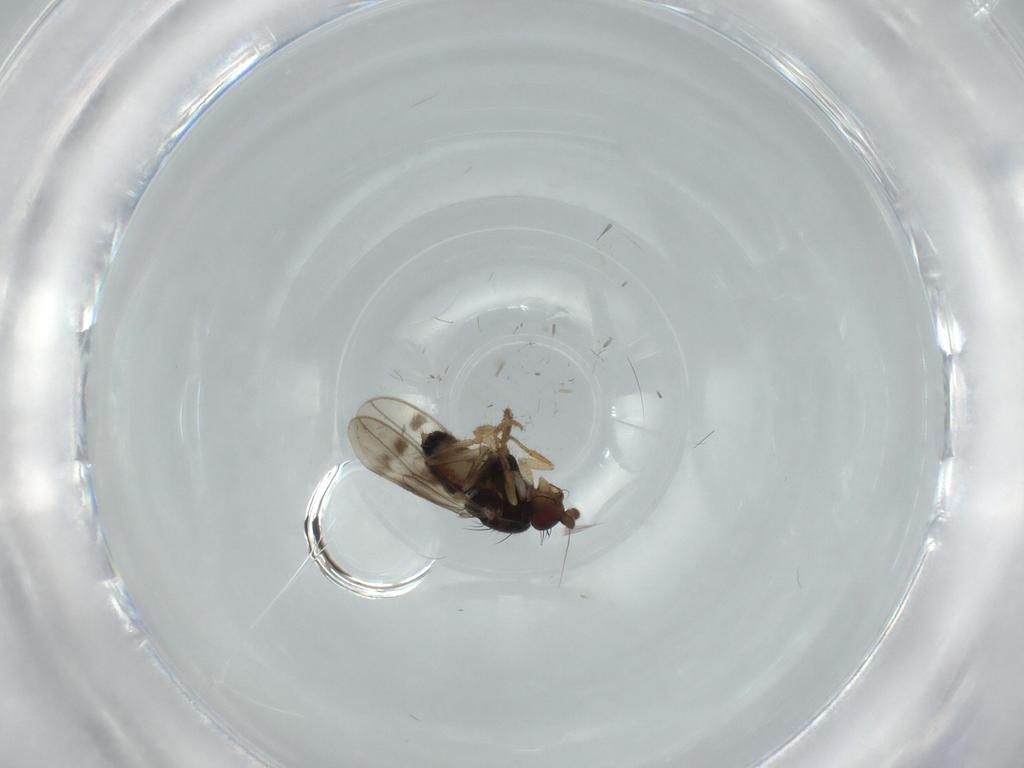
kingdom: Animalia
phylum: Arthropoda
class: Insecta
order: Diptera
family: Sphaeroceridae
